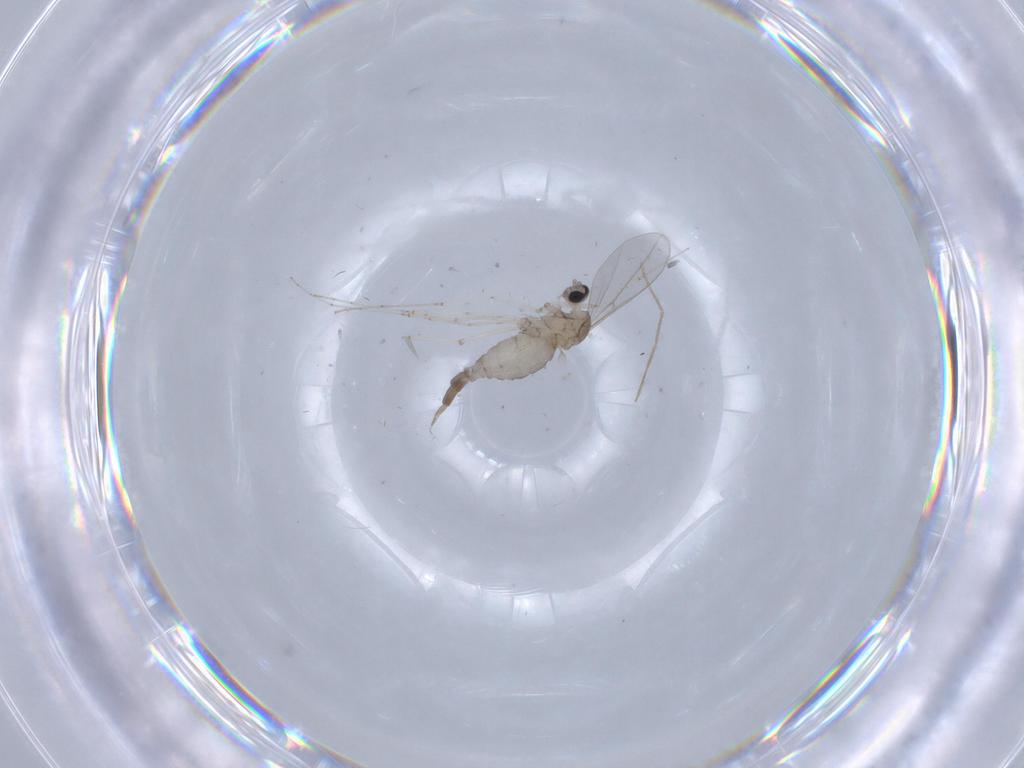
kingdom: Animalia
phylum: Arthropoda
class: Insecta
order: Diptera
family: Cecidomyiidae
